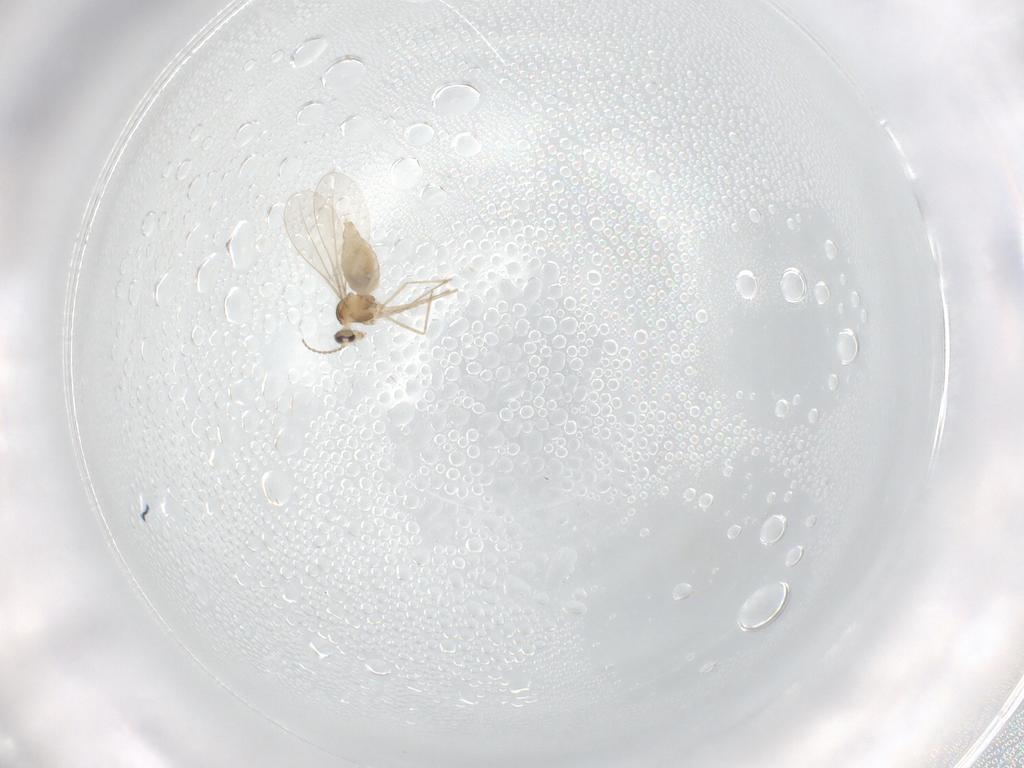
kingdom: Animalia
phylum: Arthropoda
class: Insecta
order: Diptera
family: Cecidomyiidae
